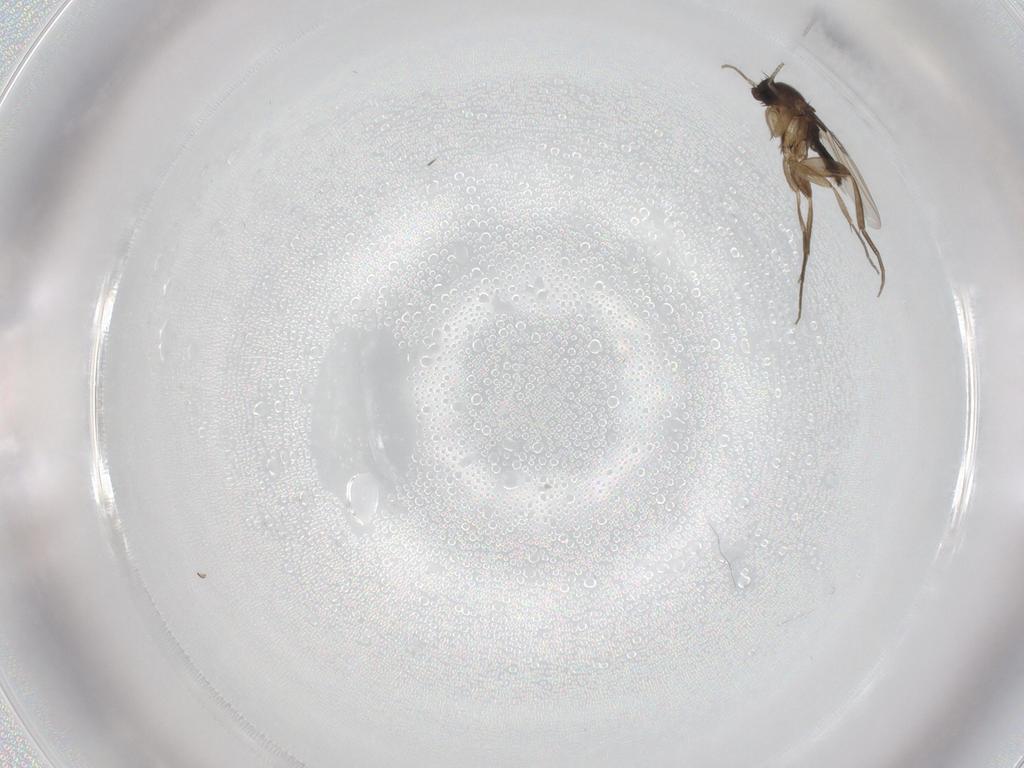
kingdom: Animalia
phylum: Arthropoda
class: Insecta
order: Diptera
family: Phoridae
